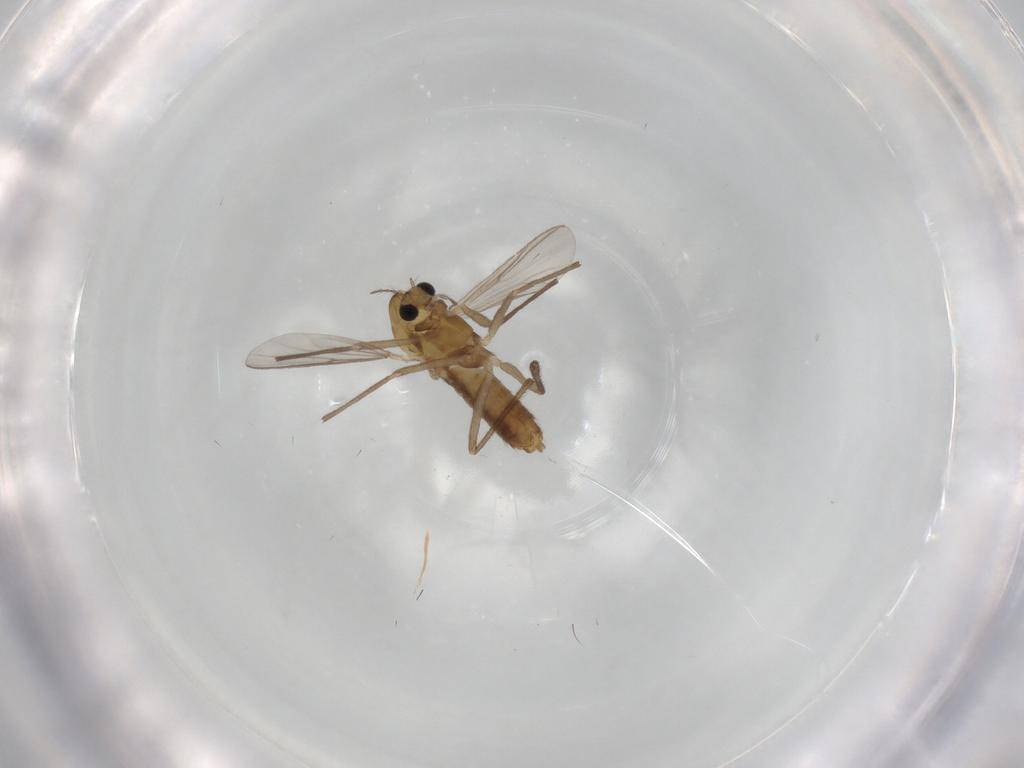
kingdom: Animalia
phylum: Arthropoda
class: Insecta
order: Diptera
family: Chironomidae
